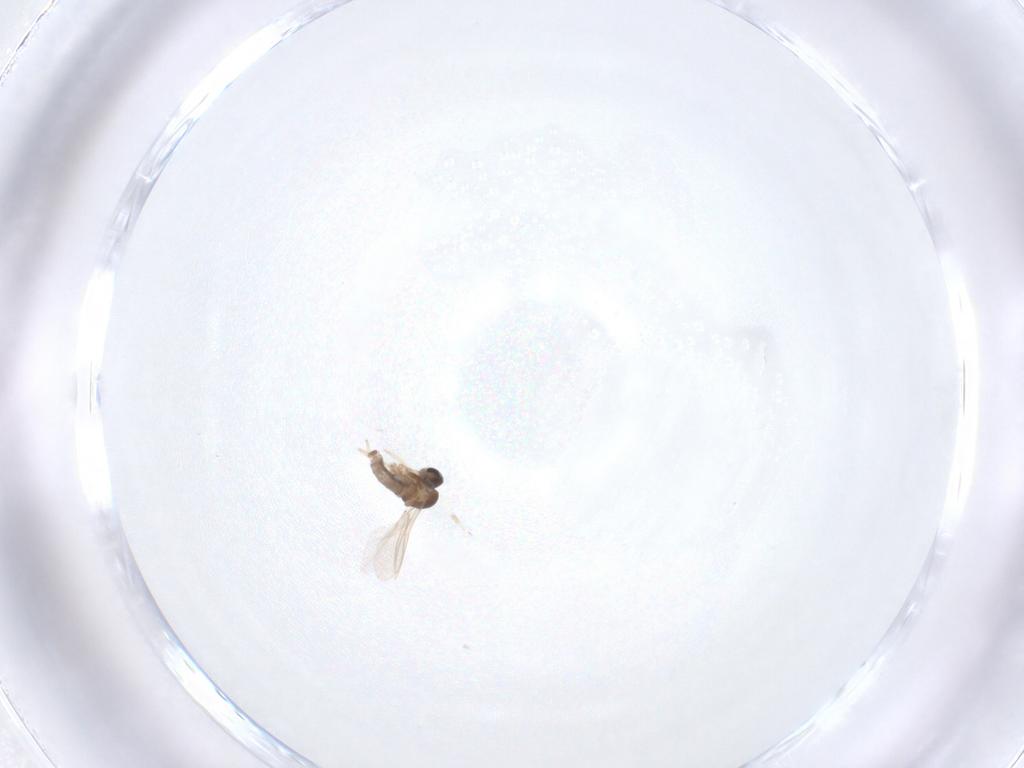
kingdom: Animalia
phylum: Arthropoda
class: Insecta
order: Diptera
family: Cecidomyiidae
